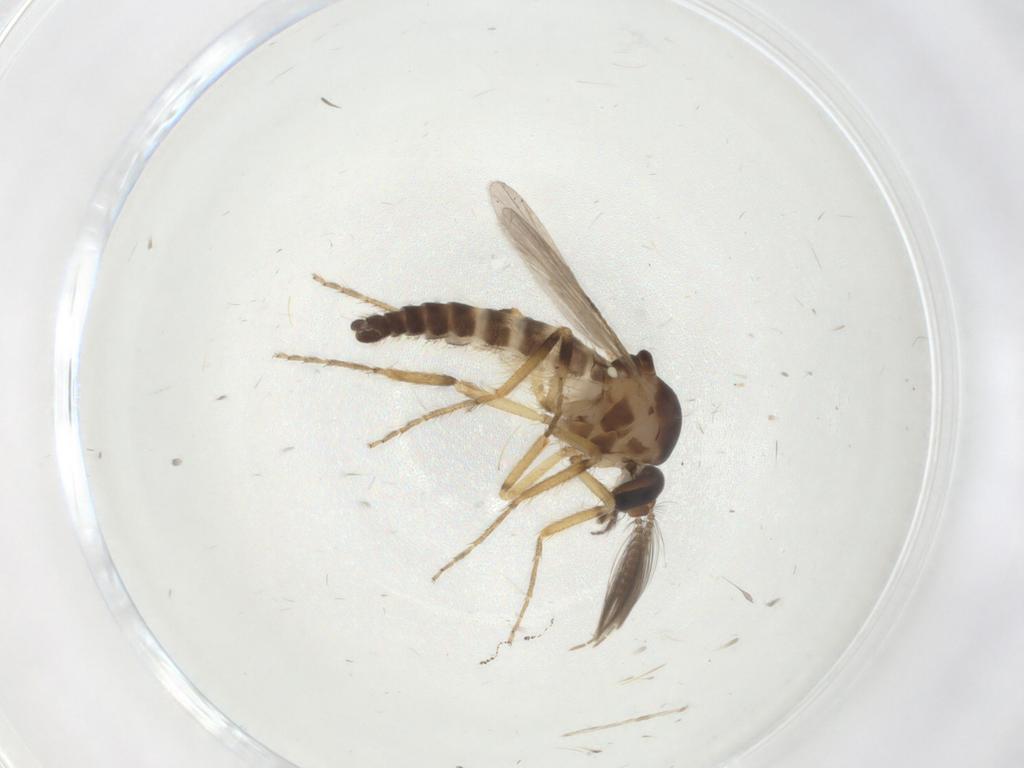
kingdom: Animalia
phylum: Arthropoda
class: Insecta
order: Diptera
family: Ceratopogonidae
